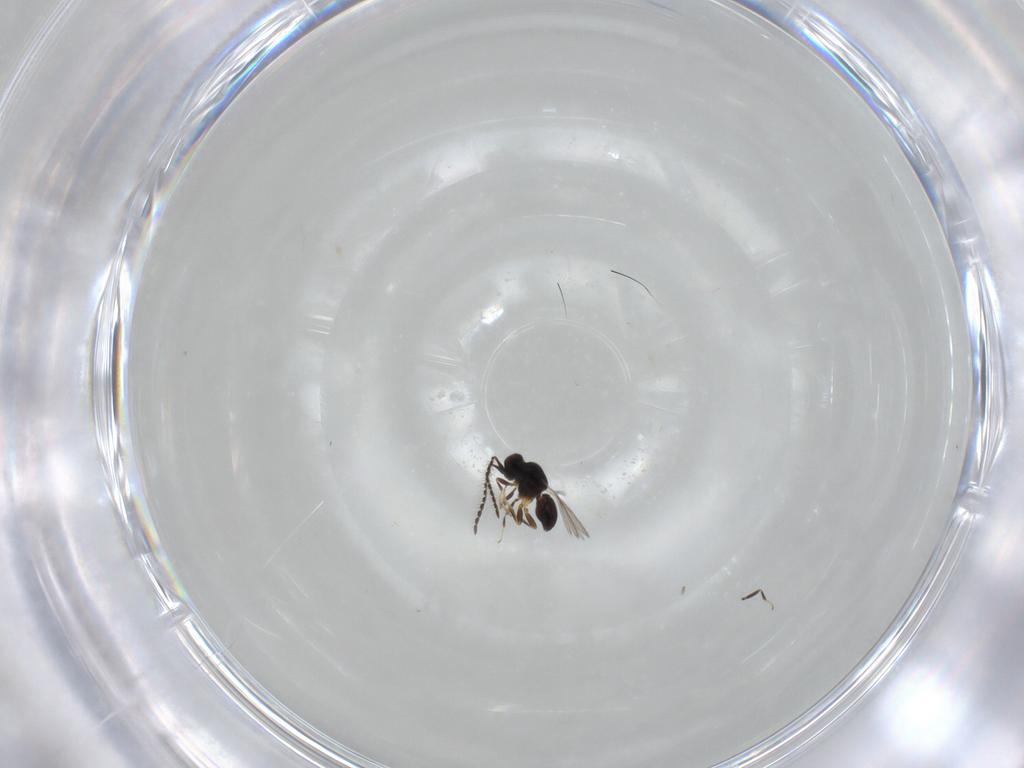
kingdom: Animalia
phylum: Arthropoda
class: Insecta
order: Hymenoptera
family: Ceraphronidae
